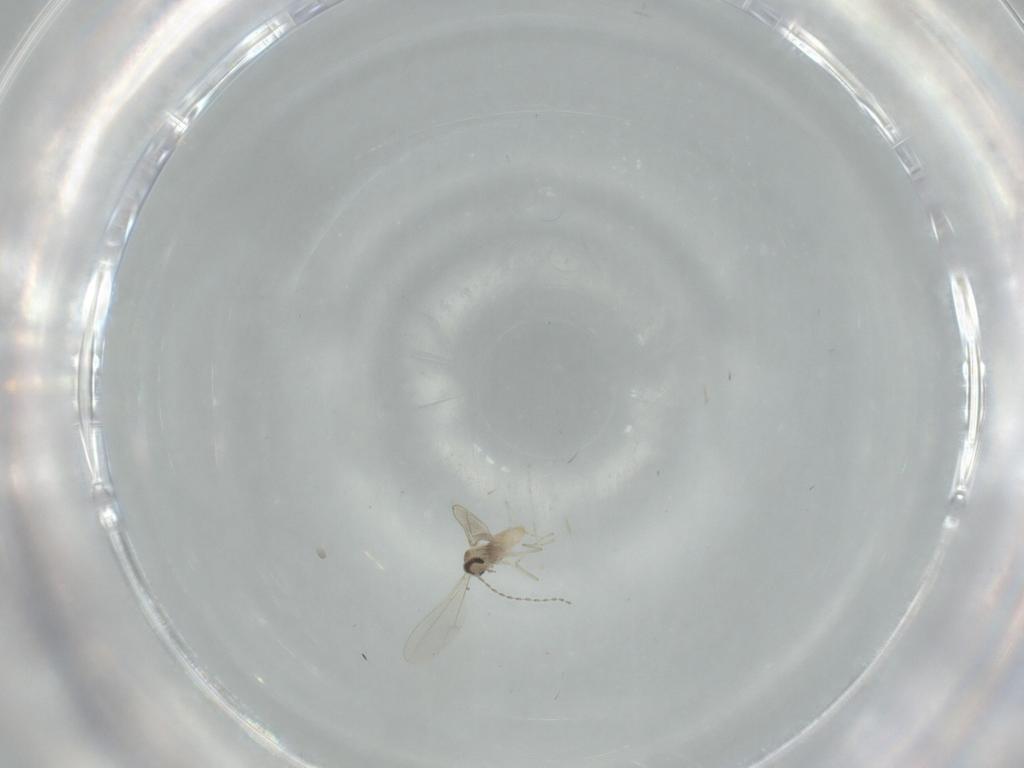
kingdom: Animalia
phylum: Arthropoda
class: Insecta
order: Diptera
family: Cecidomyiidae
